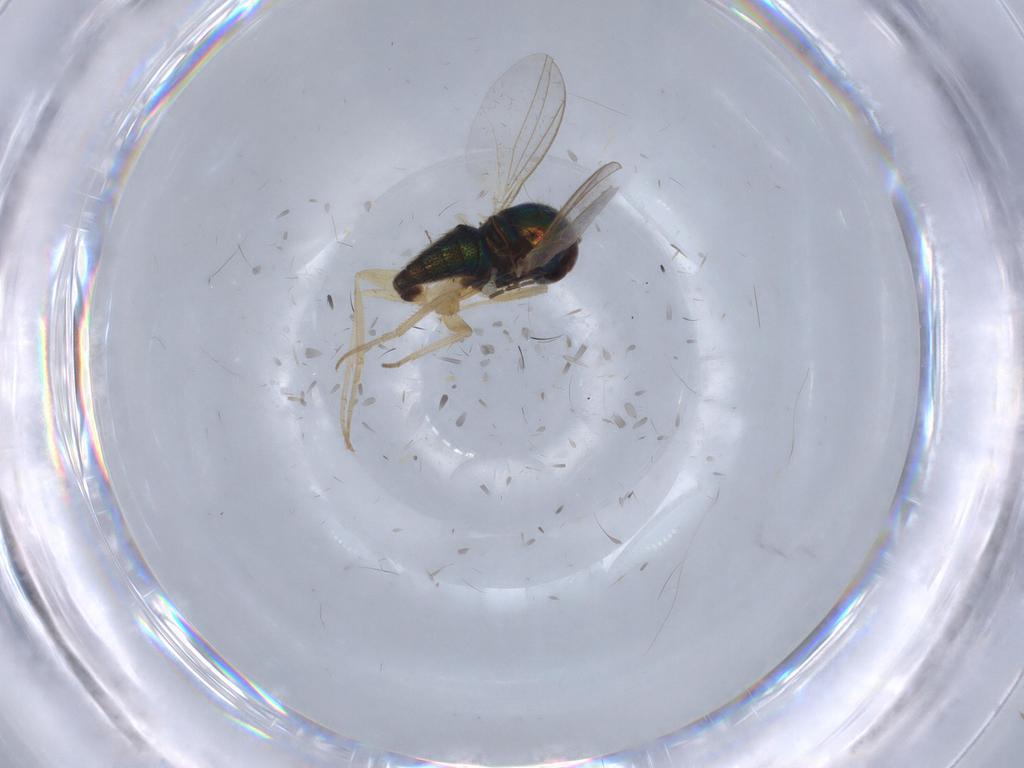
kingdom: Animalia
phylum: Arthropoda
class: Insecta
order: Diptera
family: Dolichopodidae
